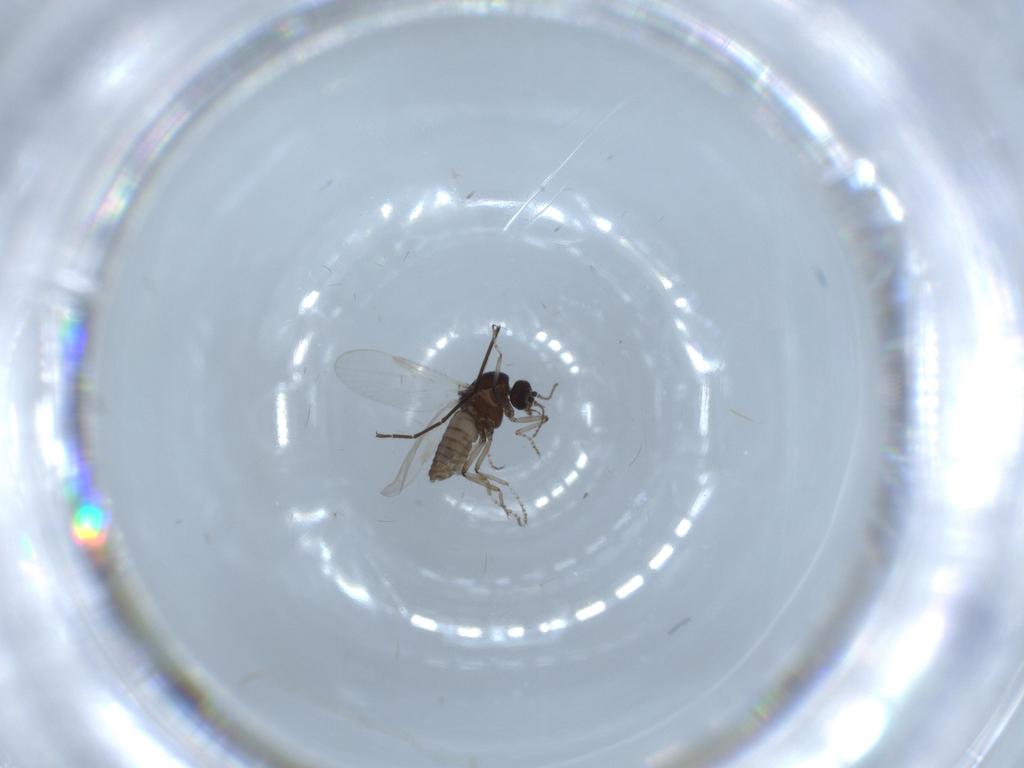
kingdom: Animalia
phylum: Arthropoda
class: Insecta
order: Diptera
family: Ceratopogonidae
